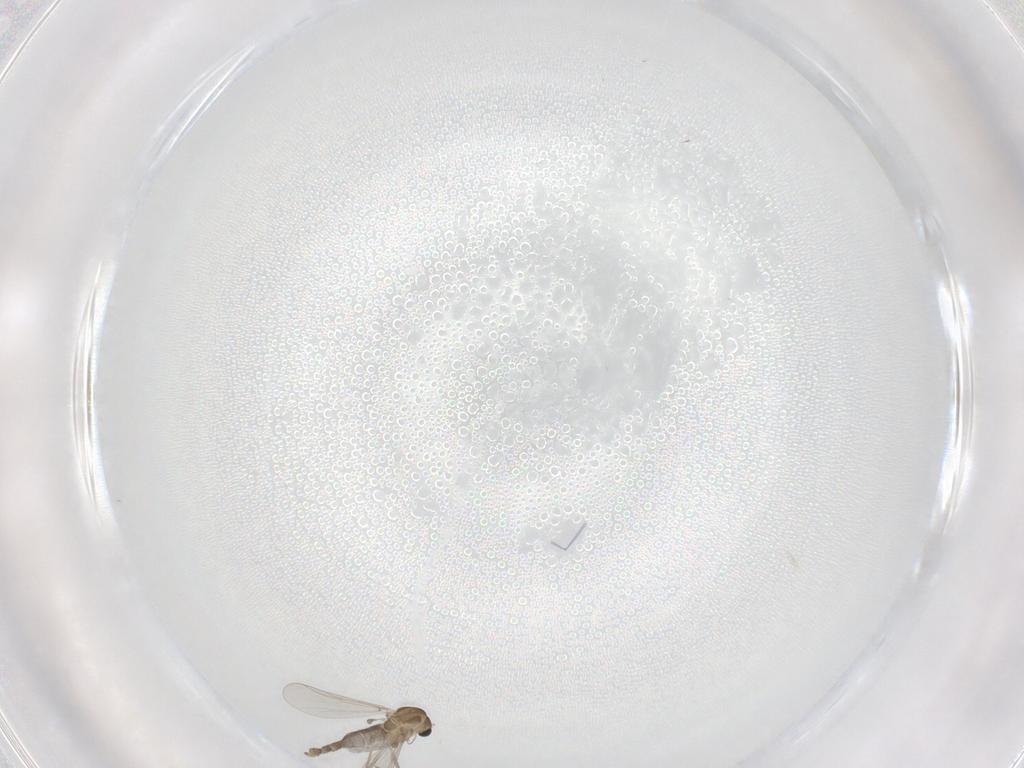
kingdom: Animalia
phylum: Arthropoda
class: Insecta
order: Diptera
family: Chironomidae
